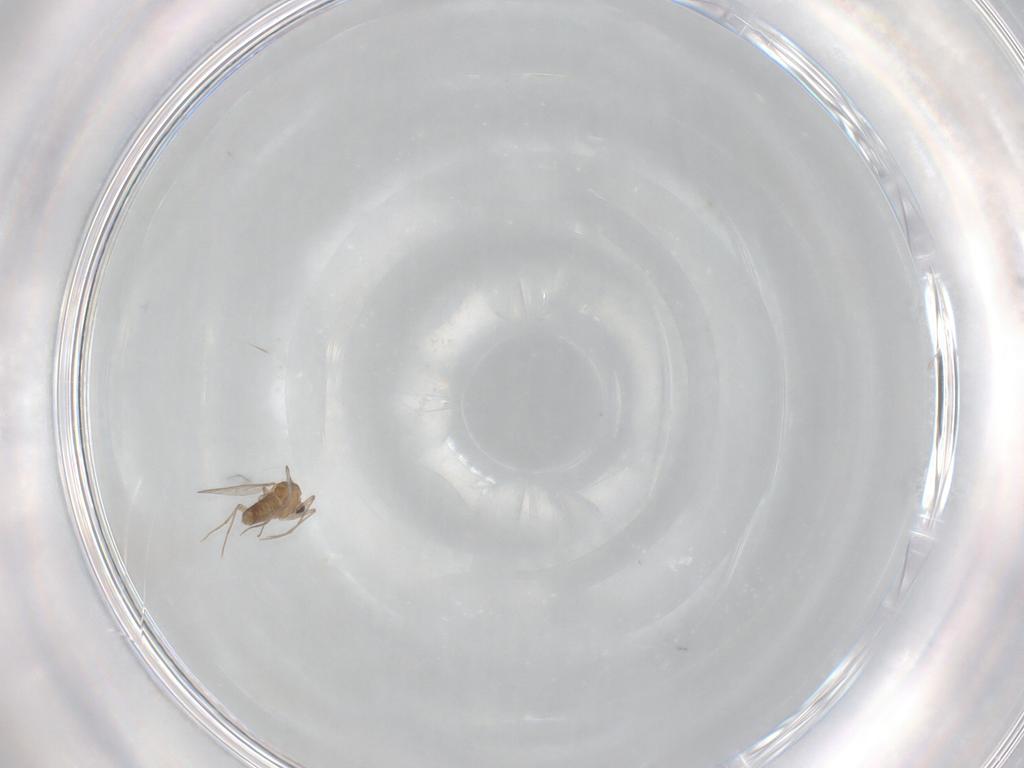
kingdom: Animalia
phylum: Arthropoda
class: Insecta
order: Diptera
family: Chironomidae
